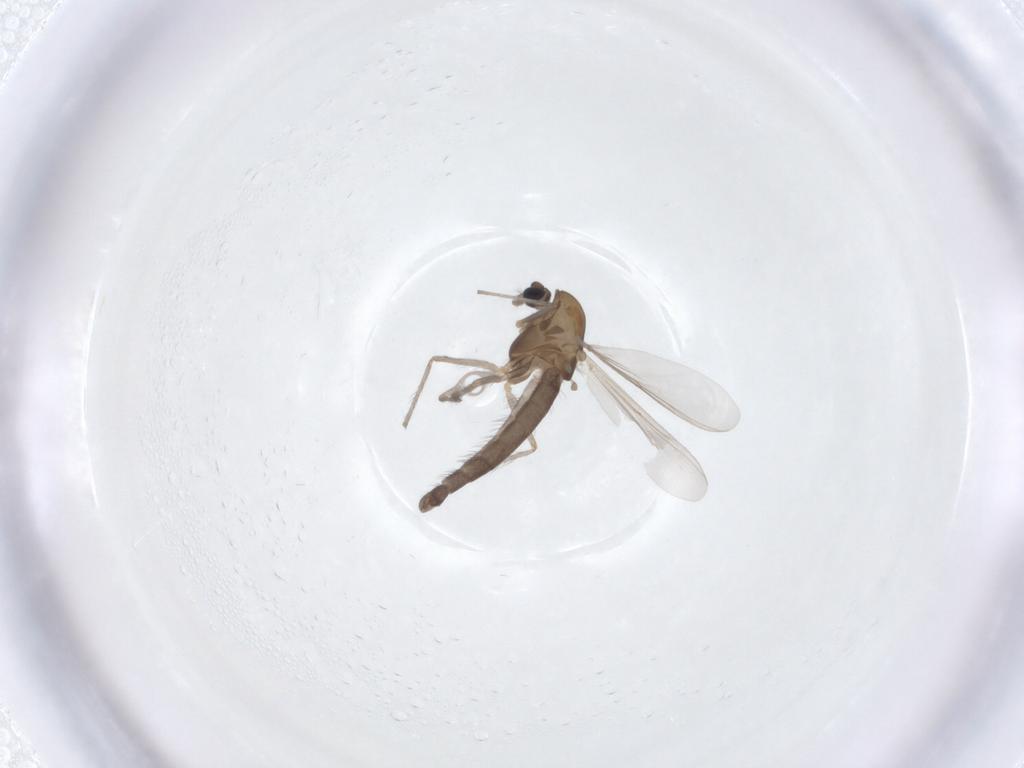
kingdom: Animalia
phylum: Arthropoda
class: Insecta
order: Diptera
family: Chironomidae
